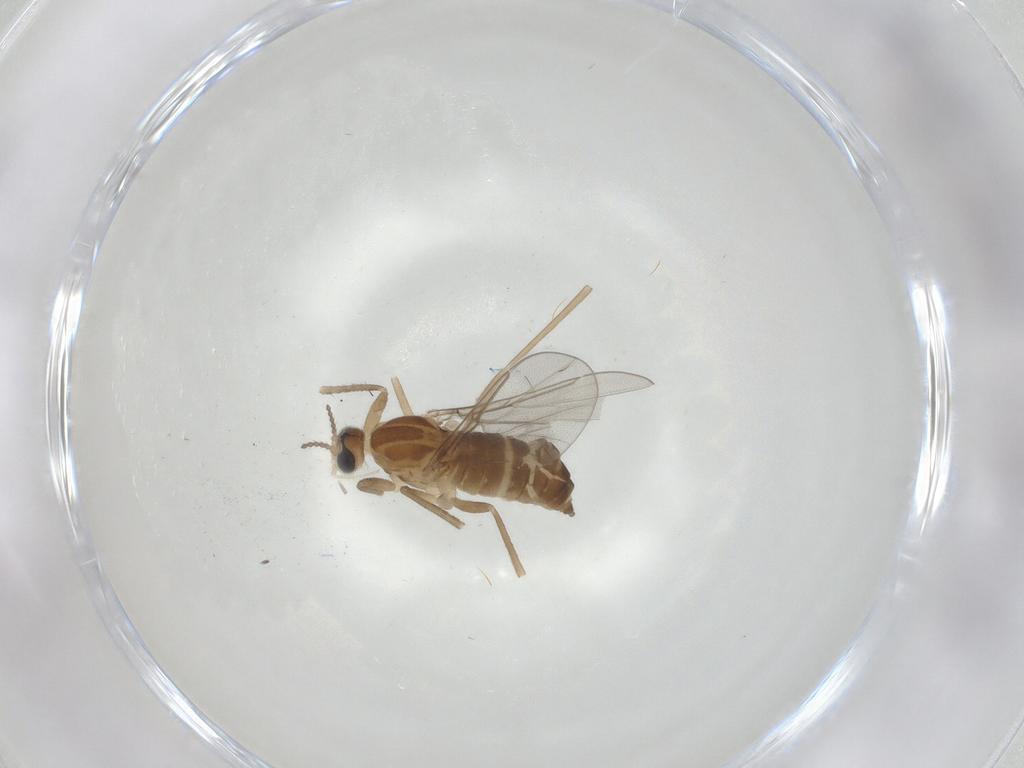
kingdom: Animalia
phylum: Arthropoda
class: Insecta
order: Diptera
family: Cecidomyiidae
